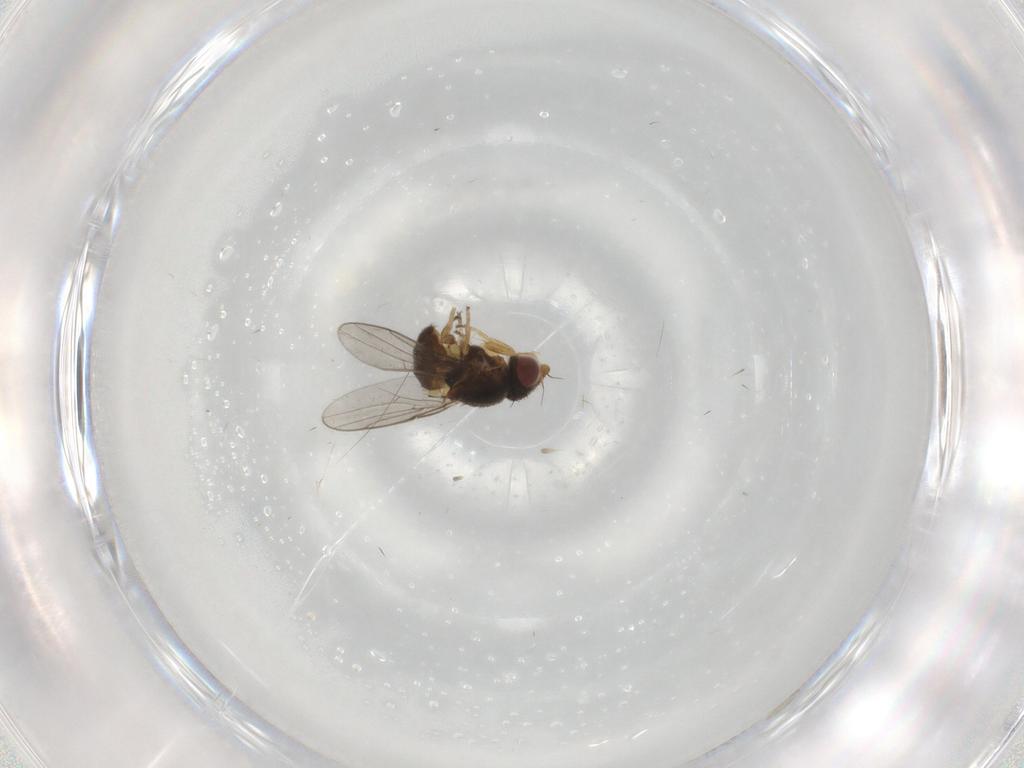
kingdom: Animalia
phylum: Arthropoda
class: Insecta
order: Diptera
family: Chloropidae
